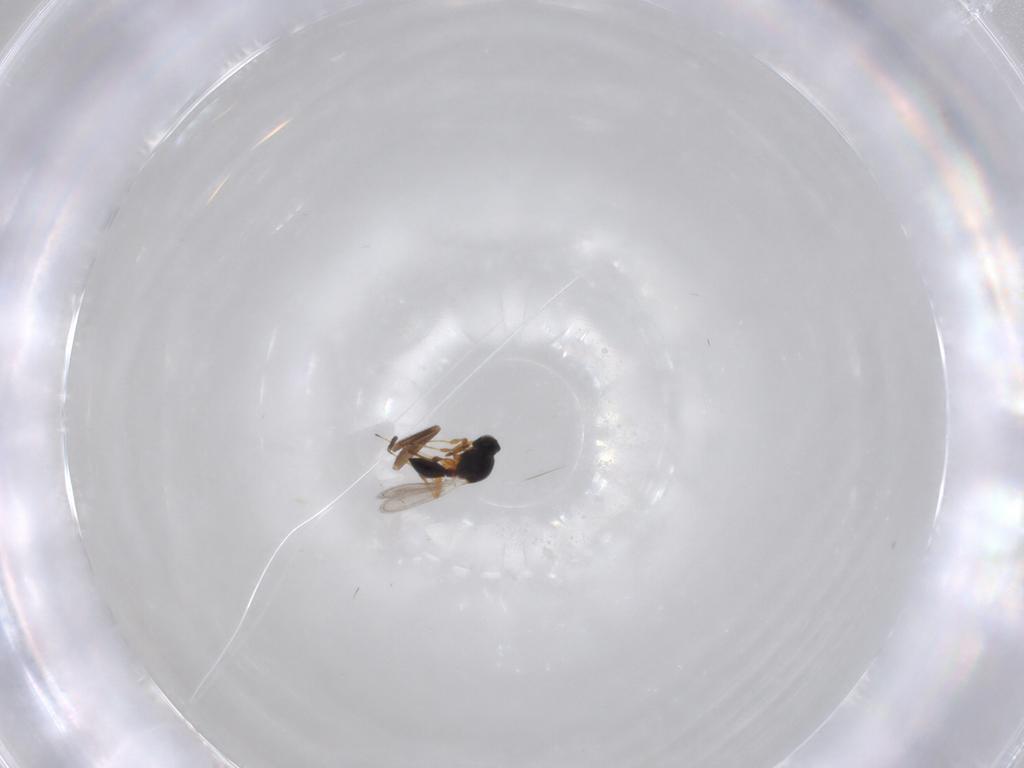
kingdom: Animalia
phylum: Arthropoda
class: Insecta
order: Hymenoptera
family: Platygastridae
